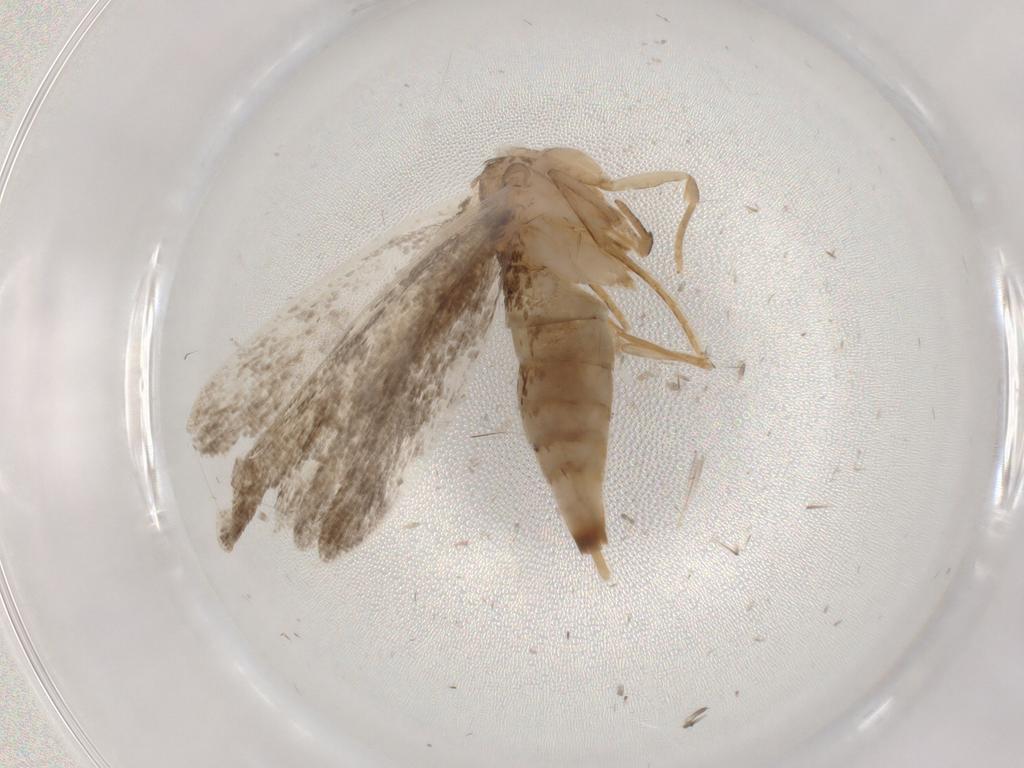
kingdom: Animalia
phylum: Arthropoda
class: Insecta
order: Lepidoptera
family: Gelechiidae
